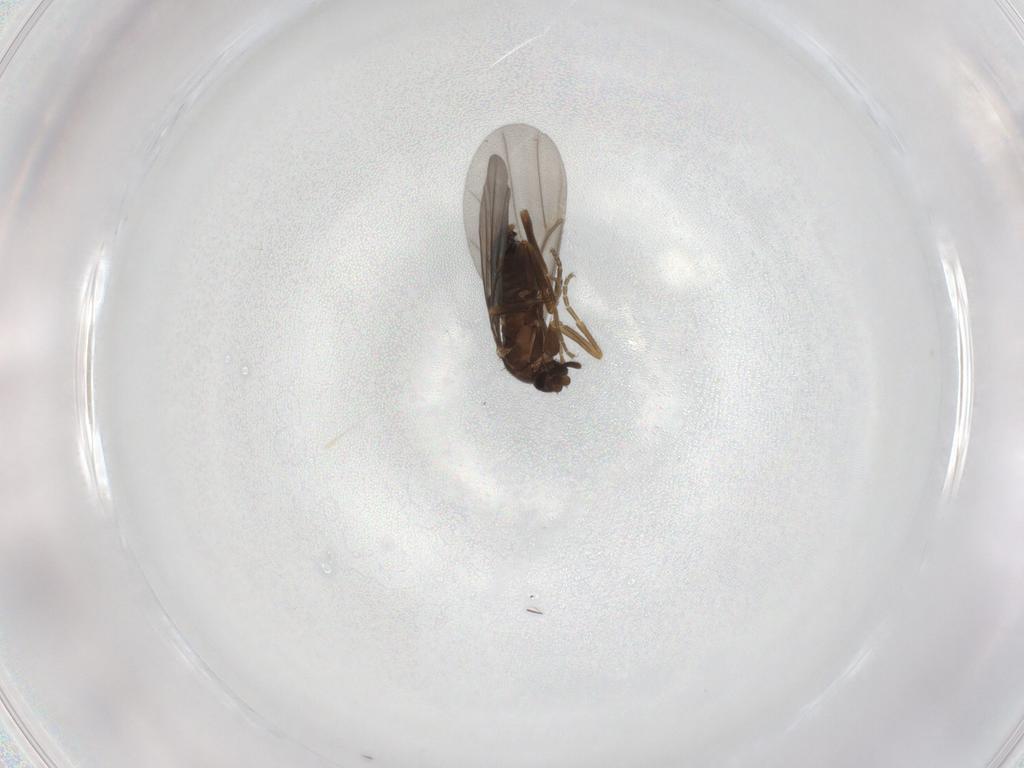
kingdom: Animalia
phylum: Arthropoda
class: Insecta
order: Diptera
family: Phoridae
